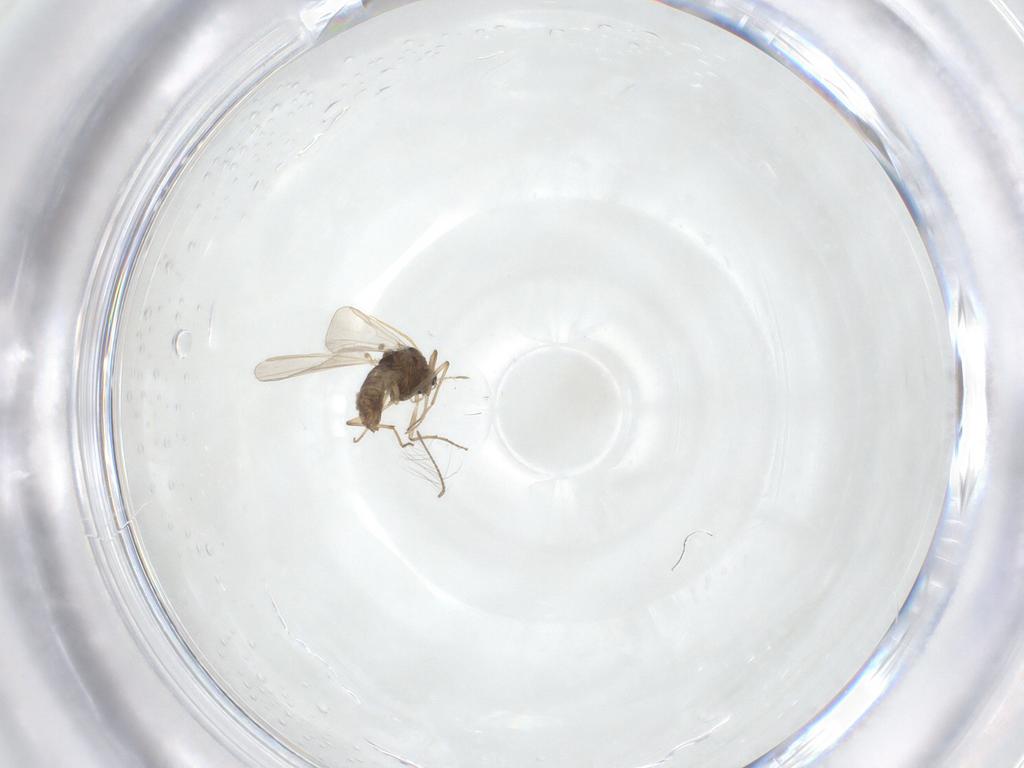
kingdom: Animalia
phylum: Arthropoda
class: Insecta
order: Diptera
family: Chironomidae
